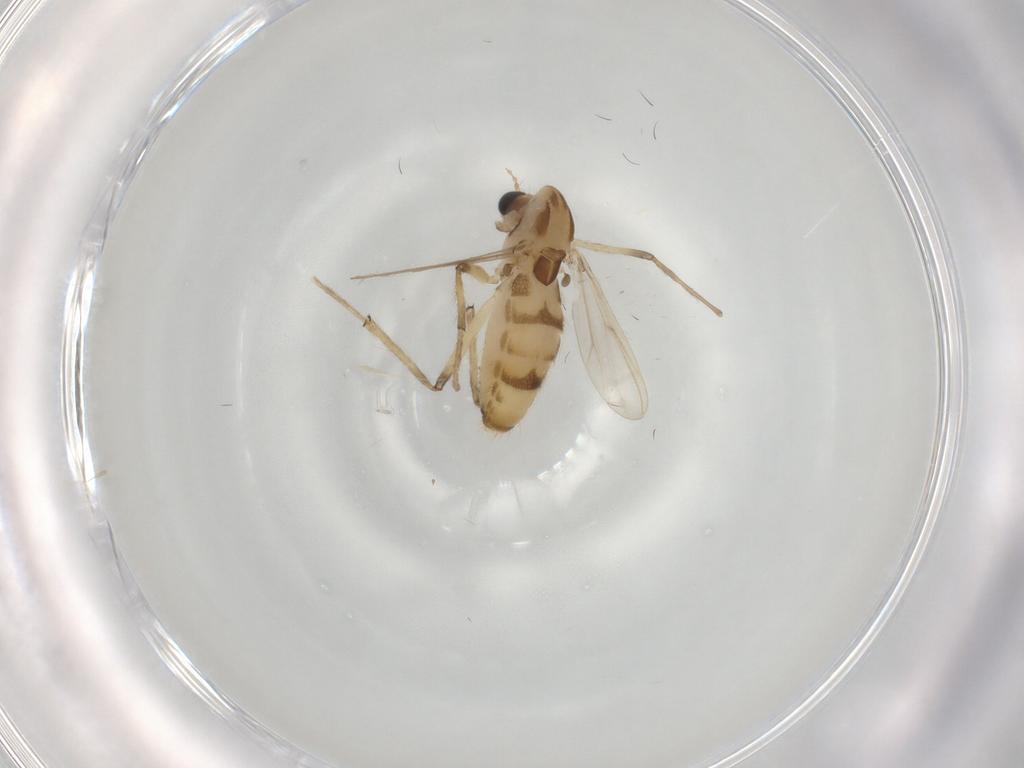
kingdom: Animalia
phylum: Arthropoda
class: Insecta
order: Diptera
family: Chironomidae
